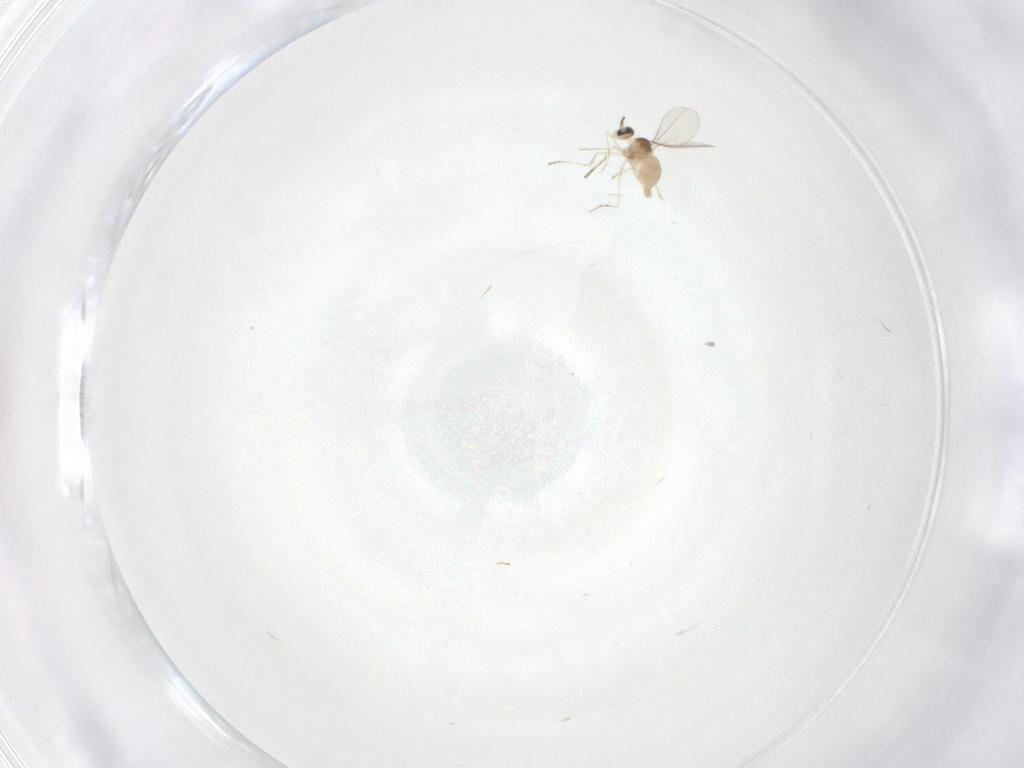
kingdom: Animalia
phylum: Arthropoda
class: Insecta
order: Diptera
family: Cecidomyiidae
